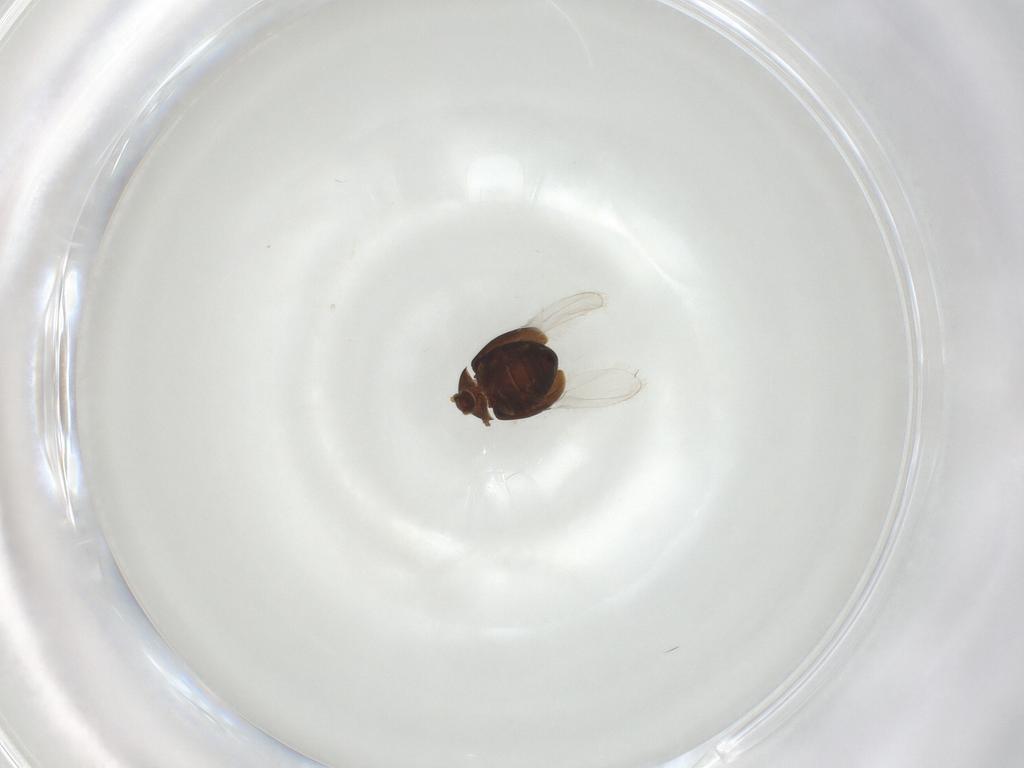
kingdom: Animalia
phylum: Arthropoda
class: Insecta
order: Coleoptera
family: Corylophidae
